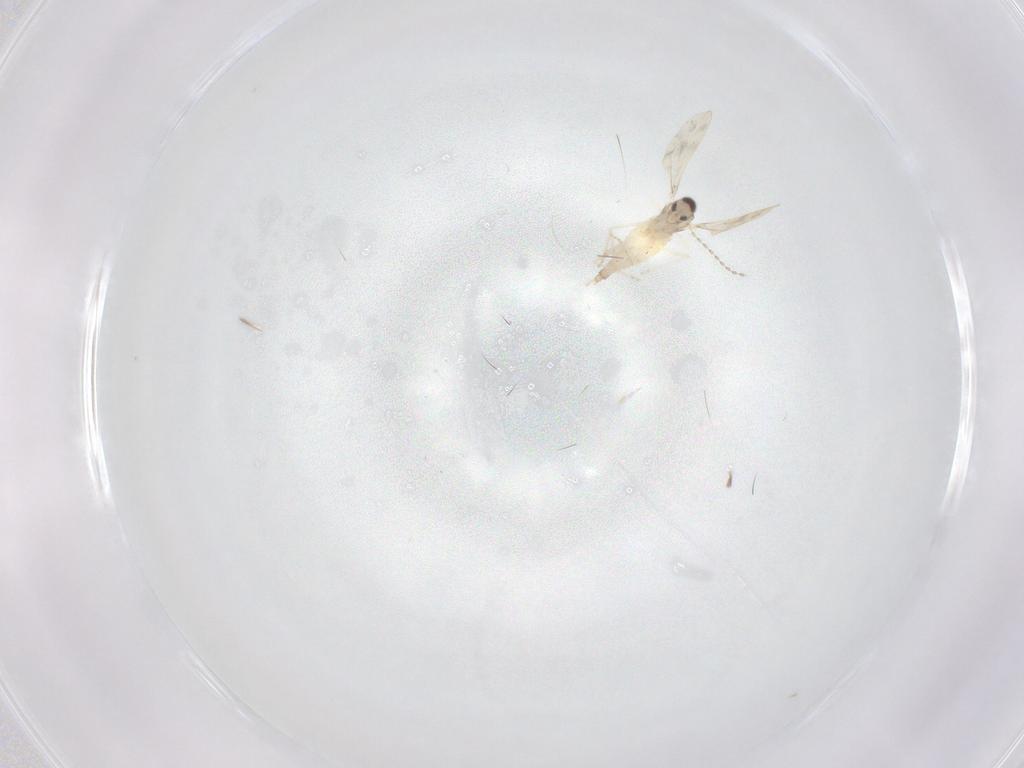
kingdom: Animalia
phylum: Arthropoda
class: Insecta
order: Diptera
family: Cecidomyiidae
